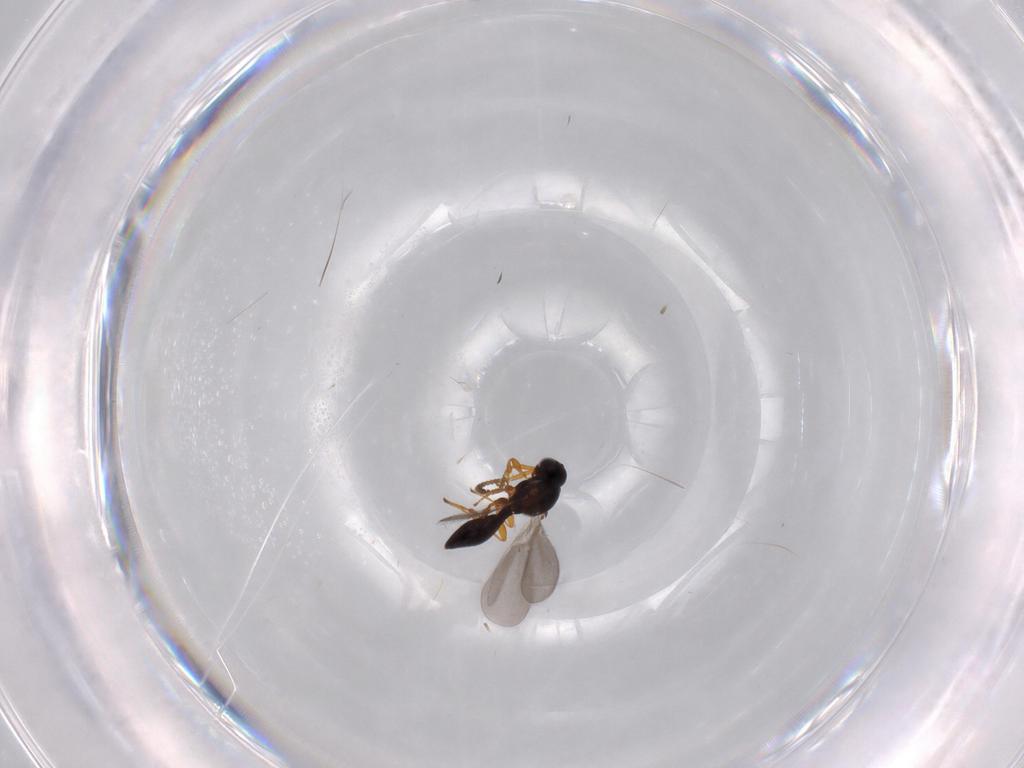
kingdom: Animalia
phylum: Arthropoda
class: Insecta
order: Hymenoptera
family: Platygastridae
